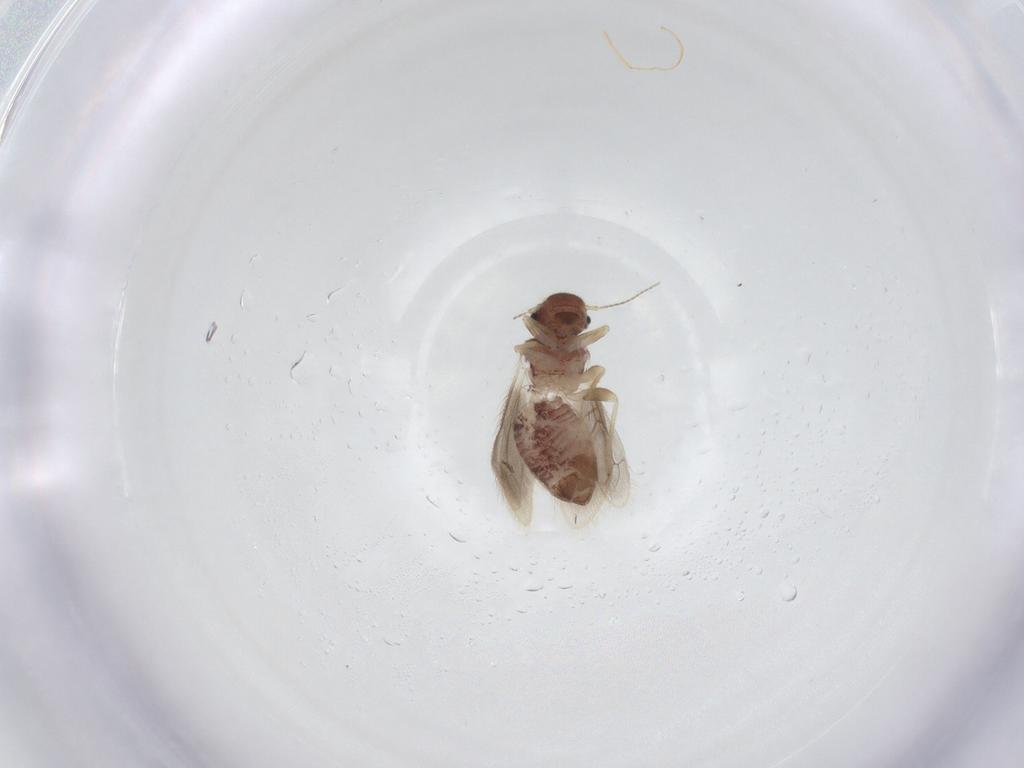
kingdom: Animalia
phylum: Arthropoda
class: Insecta
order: Psocodea
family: Archipsocidae
